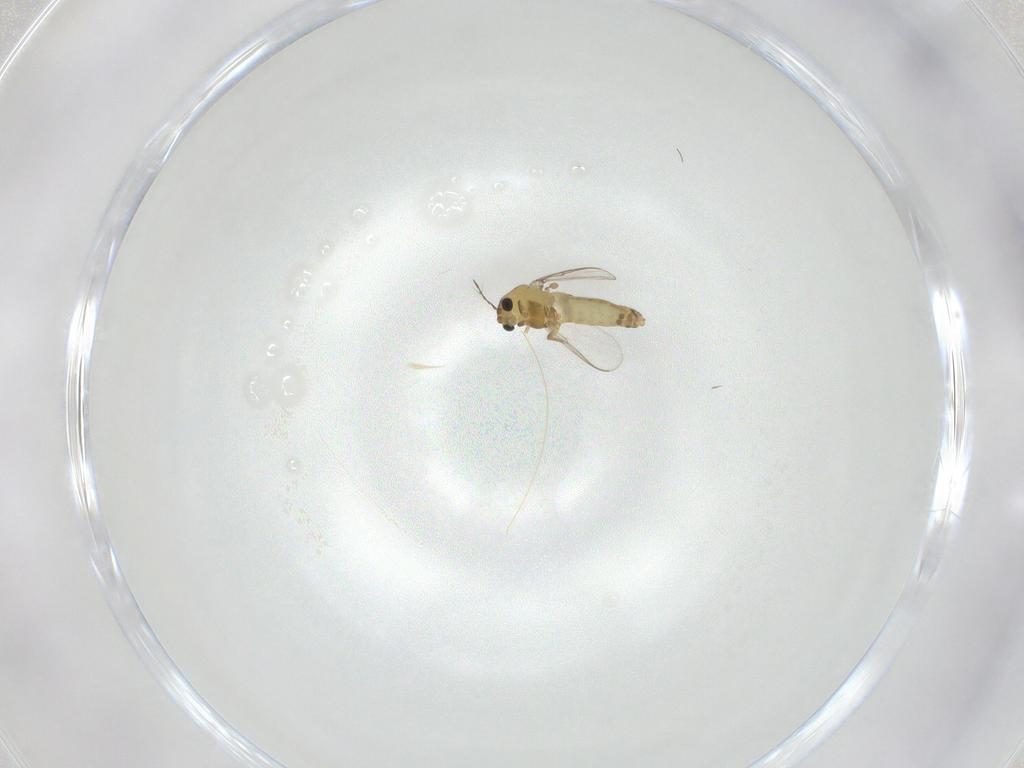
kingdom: Animalia
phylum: Arthropoda
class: Insecta
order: Diptera
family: Chironomidae
